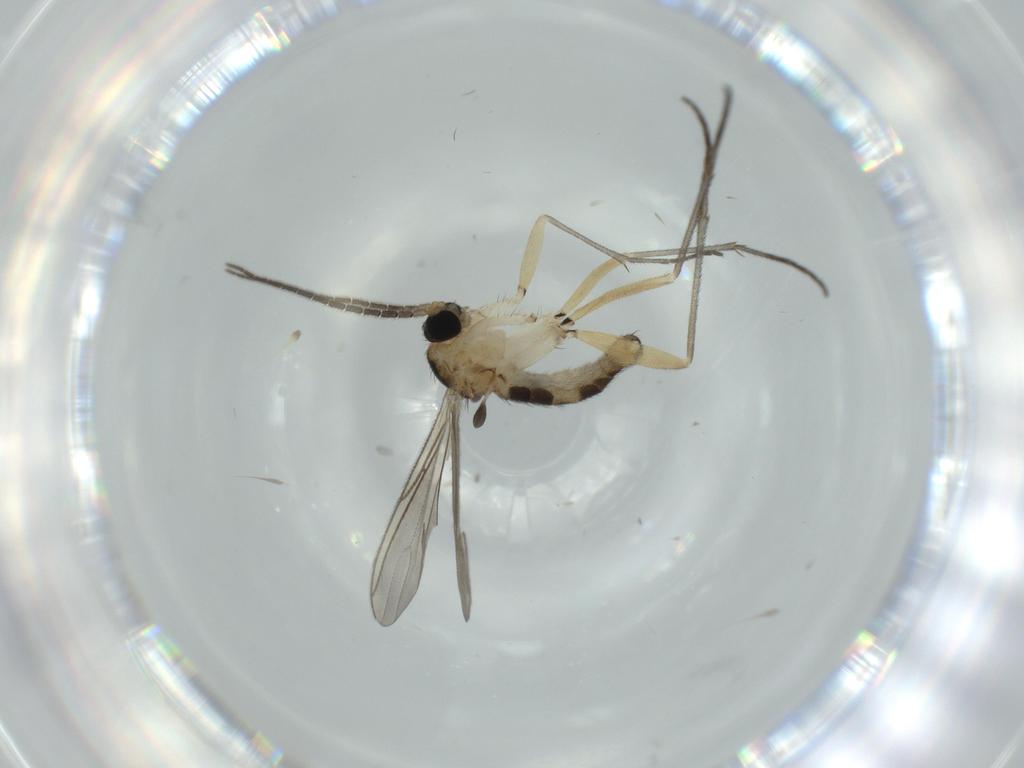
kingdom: Animalia
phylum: Arthropoda
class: Insecta
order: Diptera
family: Sciaridae
